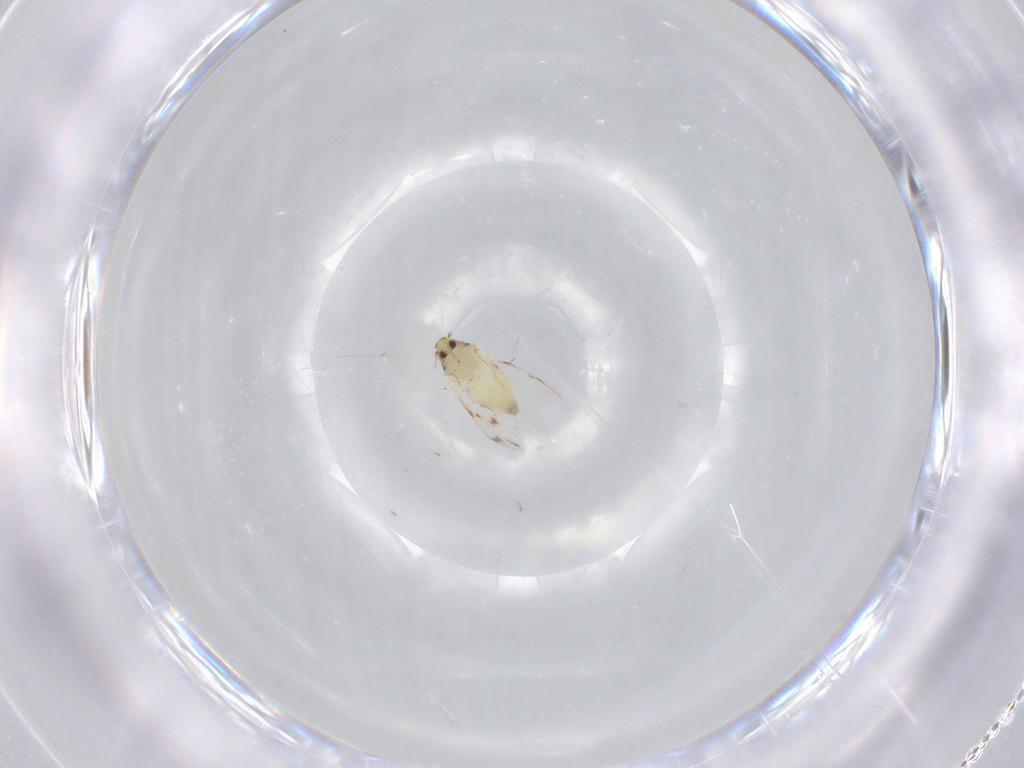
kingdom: Animalia
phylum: Arthropoda
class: Insecta
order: Hemiptera
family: Aleyrodidae
